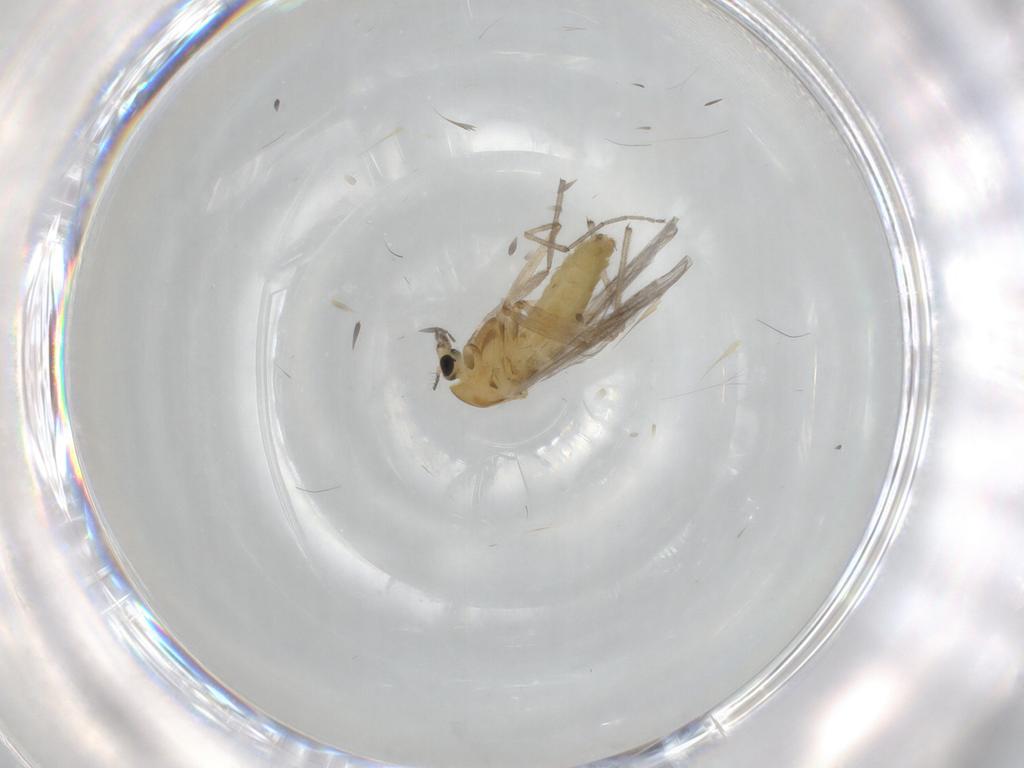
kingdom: Animalia
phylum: Arthropoda
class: Insecta
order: Diptera
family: Chironomidae
